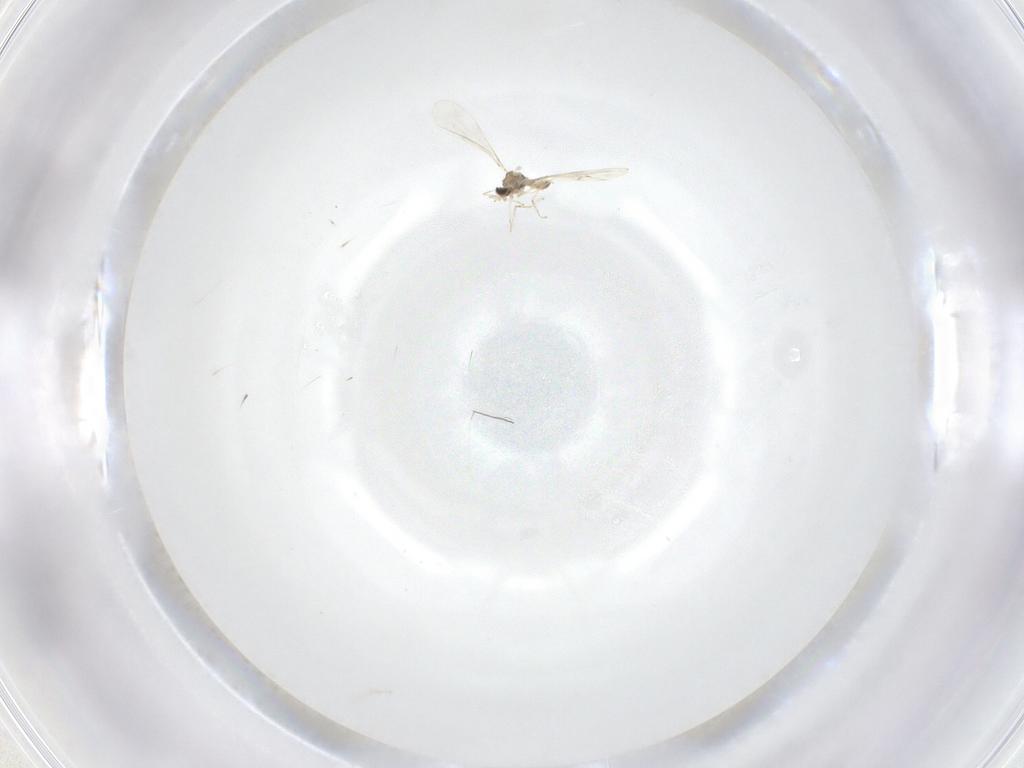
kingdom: Animalia
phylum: Arthropoda
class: Insecta
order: Diptera
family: Cecidomyiidae
